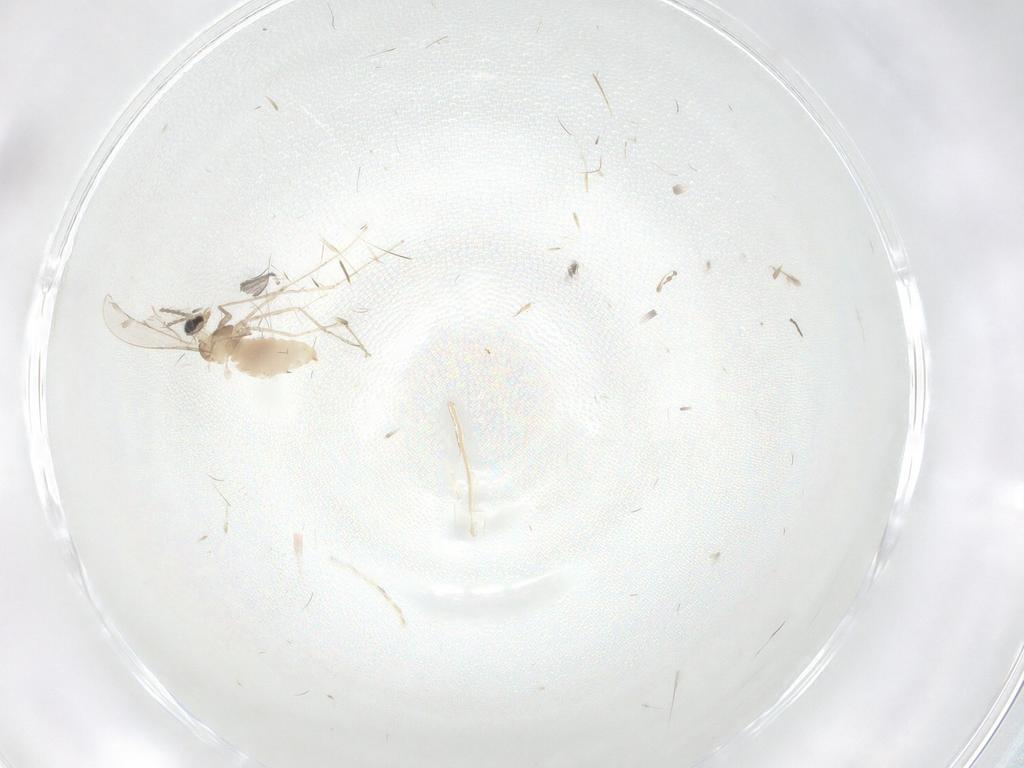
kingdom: Animalia
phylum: Arthropoda
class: Insecta
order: Diptera
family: Cecidomyiidae
